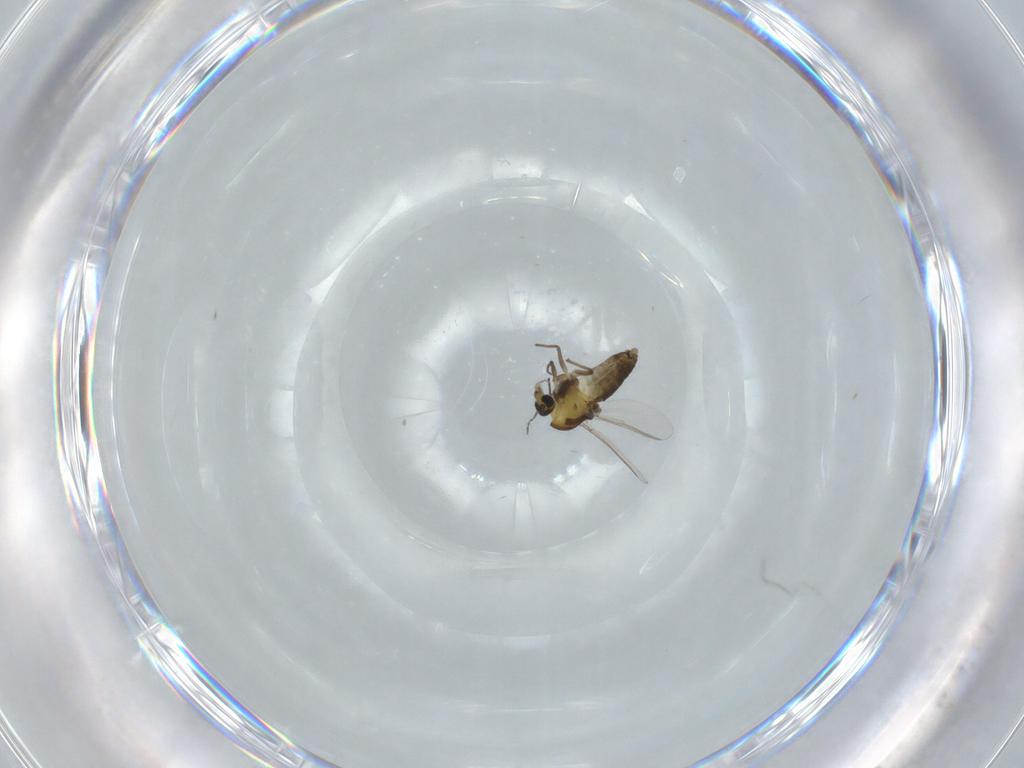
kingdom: Animalia
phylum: Arthropoda
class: Insecta
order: Diptera
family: Chironomidae
